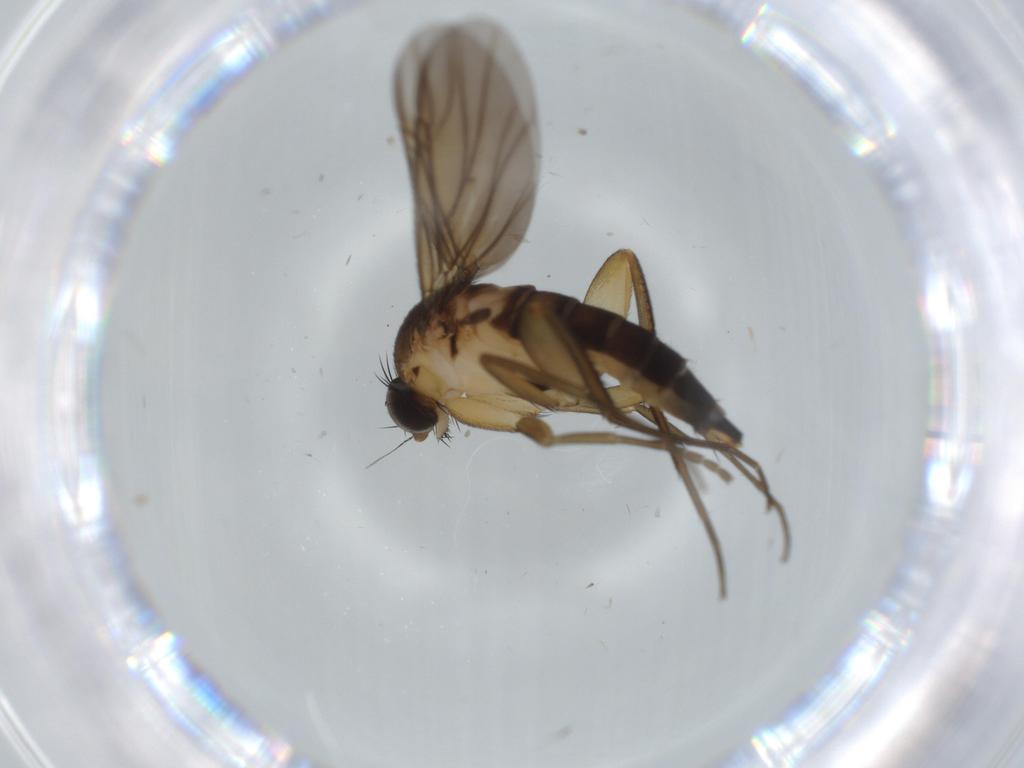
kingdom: Animalia
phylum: Arthropoda
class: Insecta
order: Diptera
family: Phoridae
